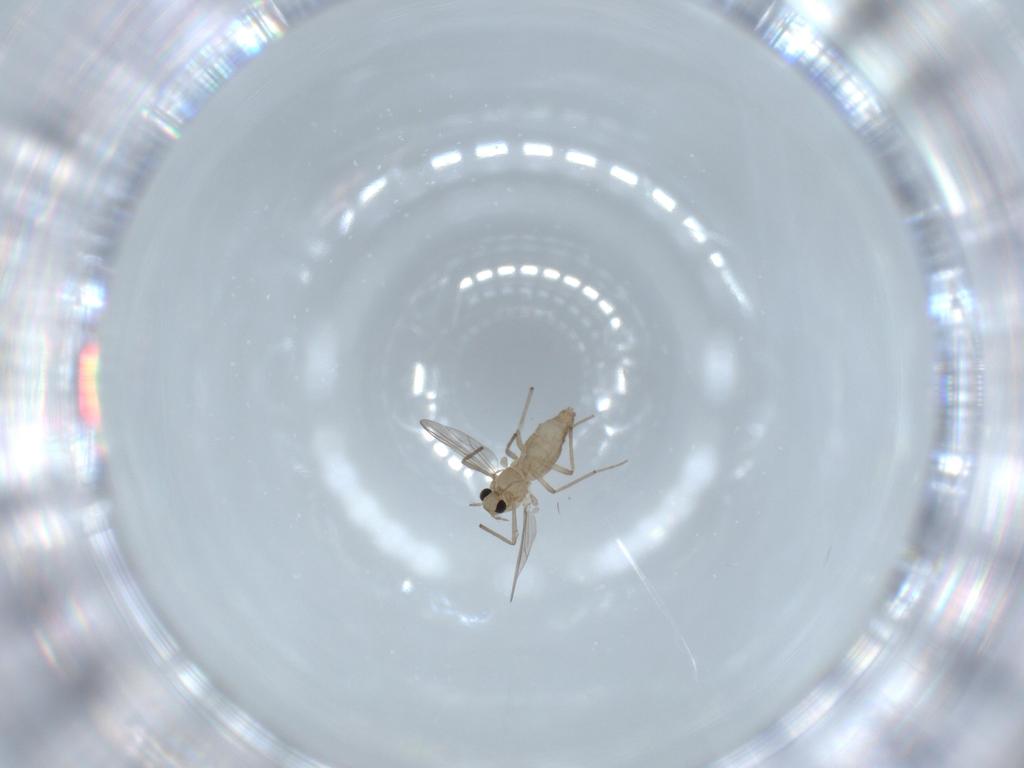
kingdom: Animalia
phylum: Arthropoda
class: Insecta
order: Diptera
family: Chironomidae
